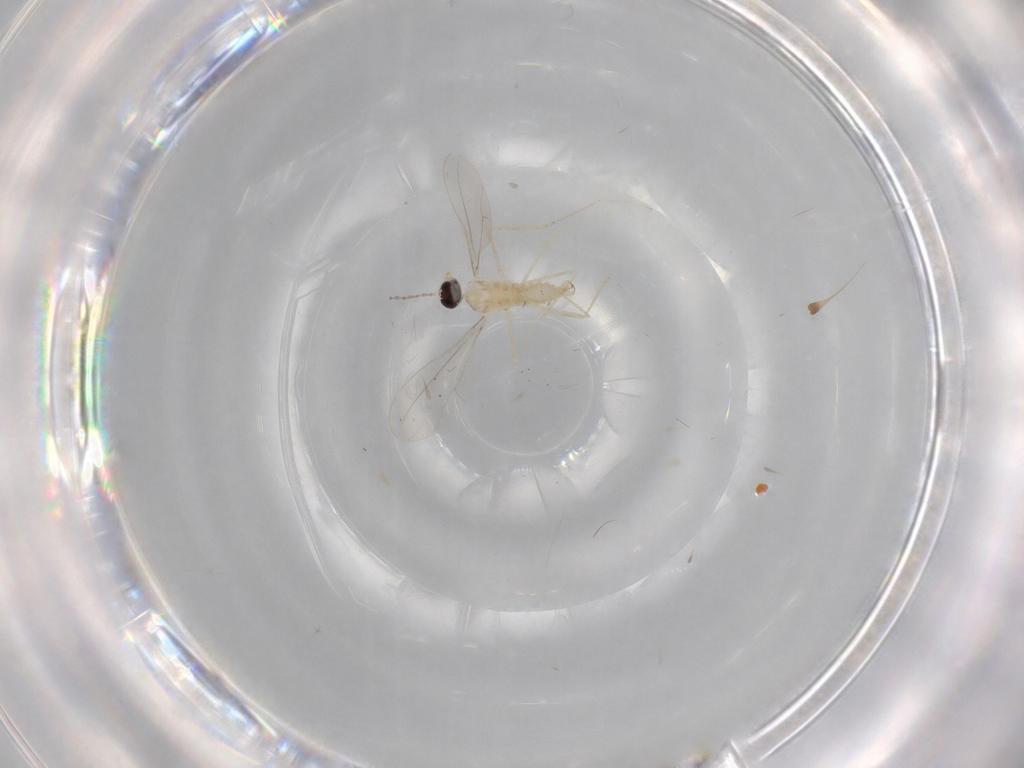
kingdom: Animalia
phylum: Arthropoda
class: Insecta
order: Diptera
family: Cecidomyiidae
